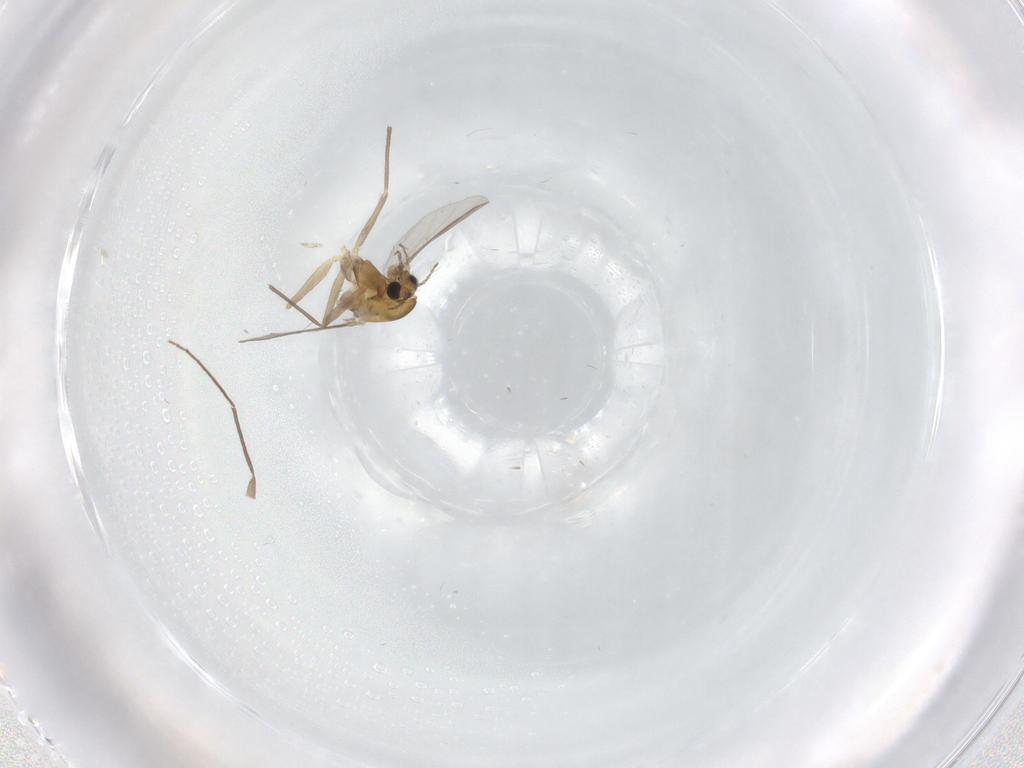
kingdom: Animalia
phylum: Arthropoda
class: Insecta
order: Diptera
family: Chironomidae
